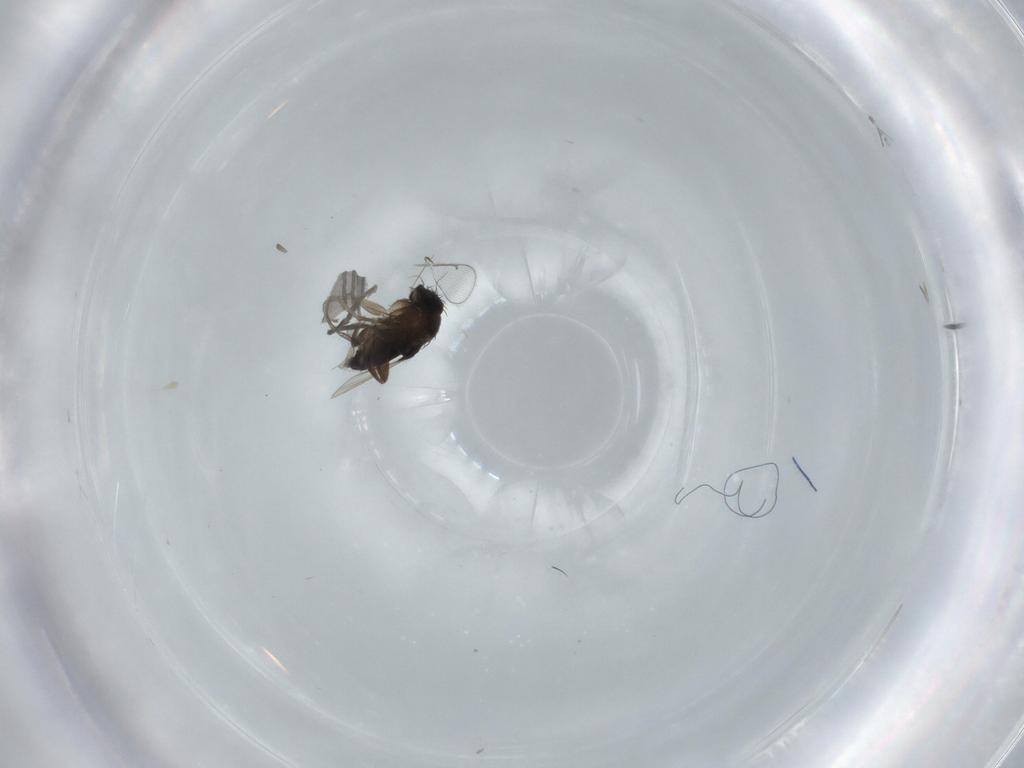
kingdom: Animalia
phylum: Arthropoda
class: Insecta
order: Diptera
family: Phoridae
